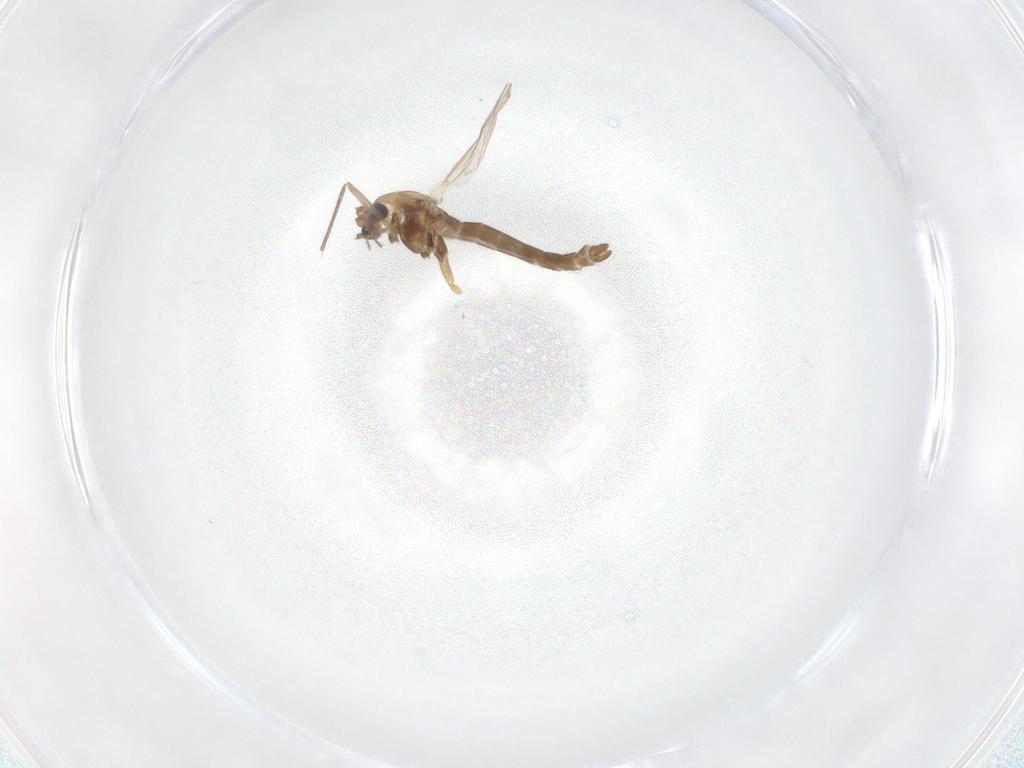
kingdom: Animalia
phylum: Arthropoda
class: Insecta
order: Diptera
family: Chironomidae
